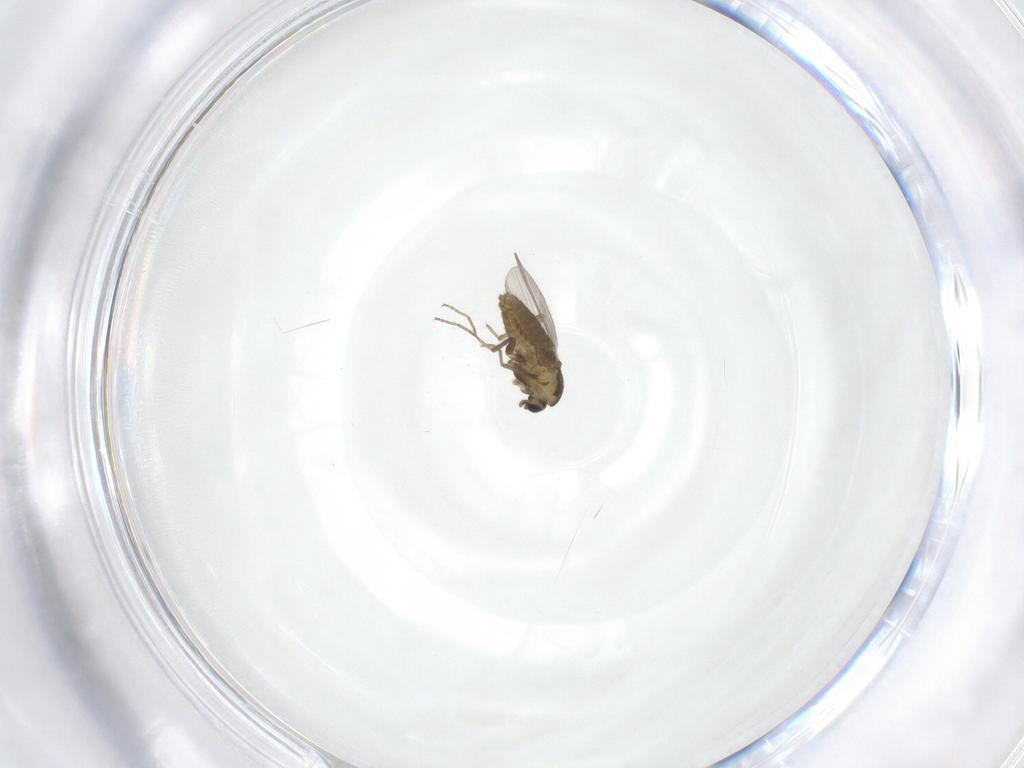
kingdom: Animalia
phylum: Arthropoda
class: Insecta
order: Diptera
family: Chironomidae
